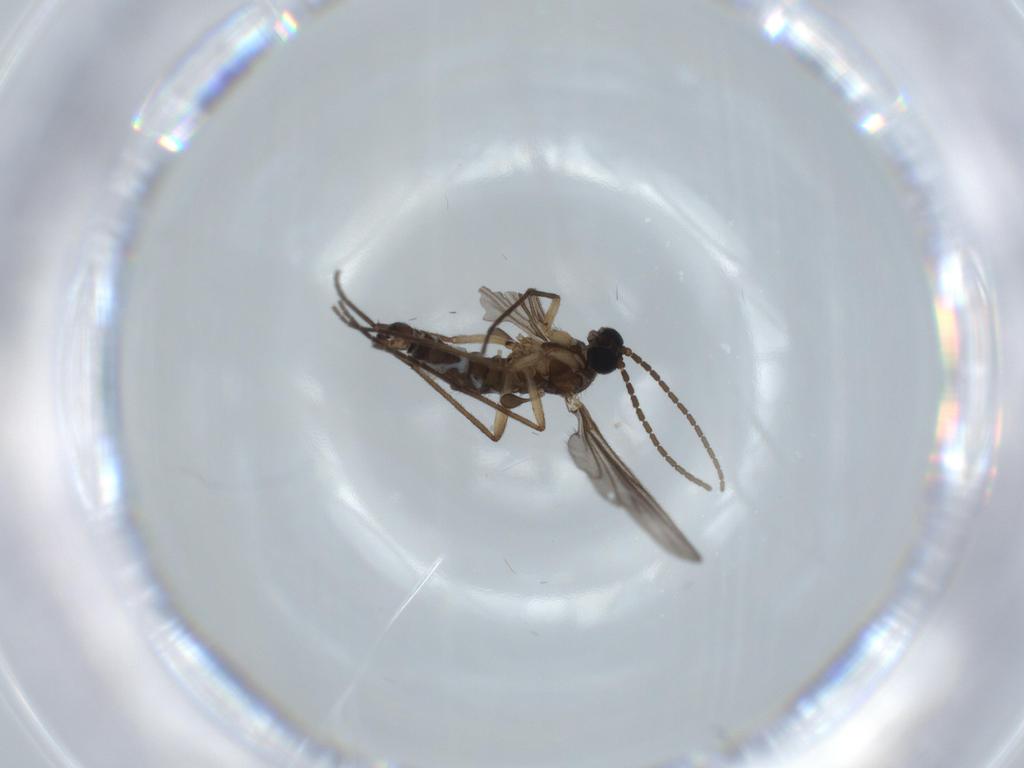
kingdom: Animalia
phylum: Arthropoda
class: Insecta
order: Diptera
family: Sciaridae
